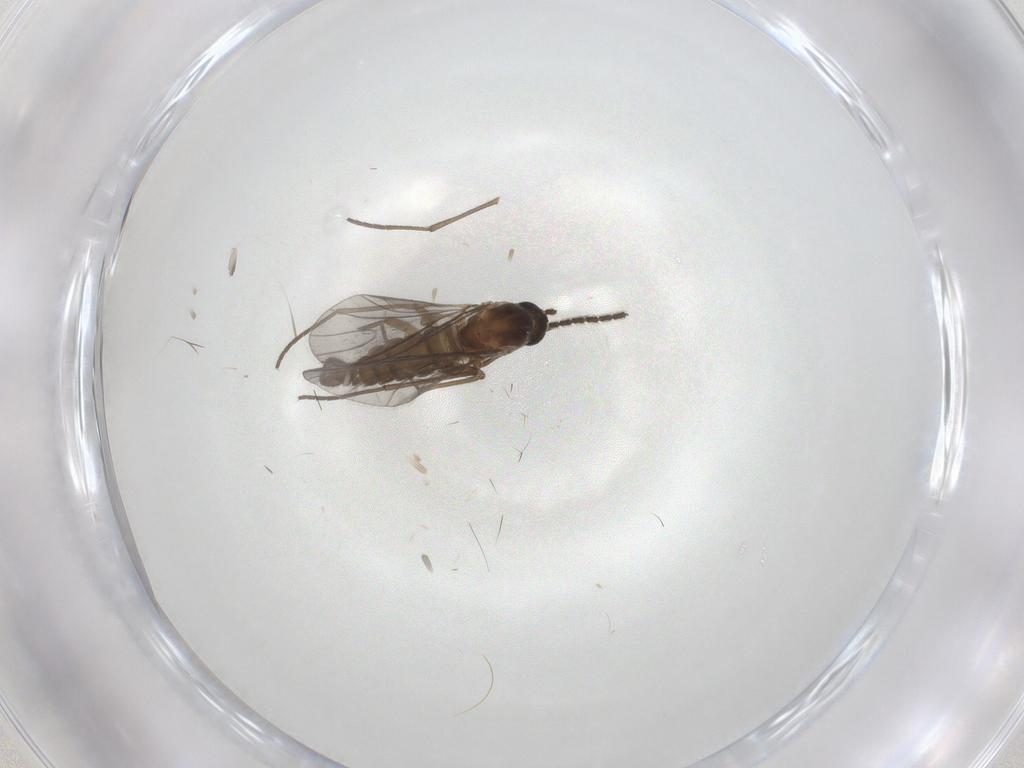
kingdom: Animalia
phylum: Arthropoda
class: Insecta
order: Diptera
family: Sciaridae
